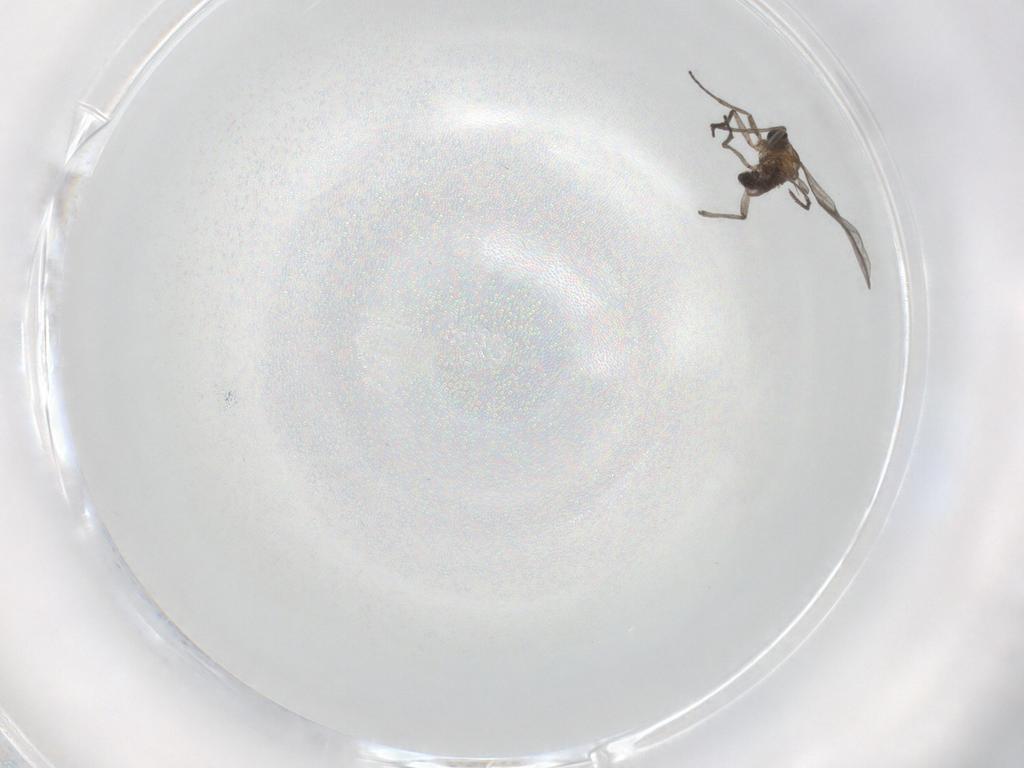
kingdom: Animalia
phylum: Arthropoda
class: Insecta
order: Diptera
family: Sciaridae
